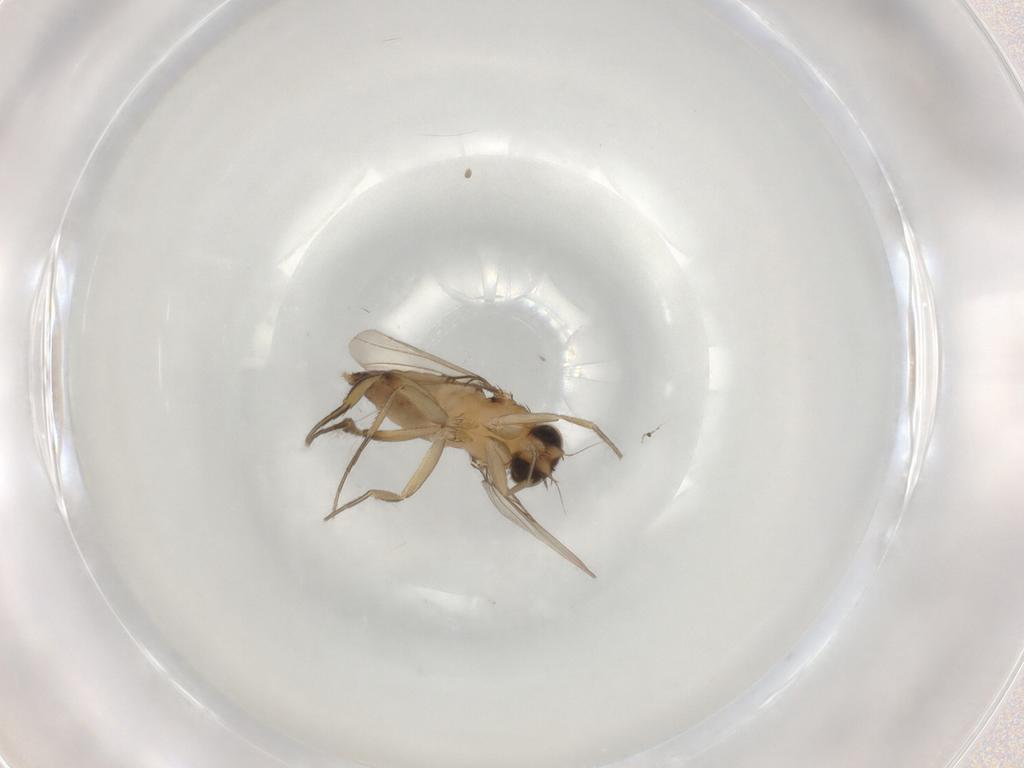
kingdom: Animalia
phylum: Arthropoda
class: Insecta
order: Diptera
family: Phoridae
